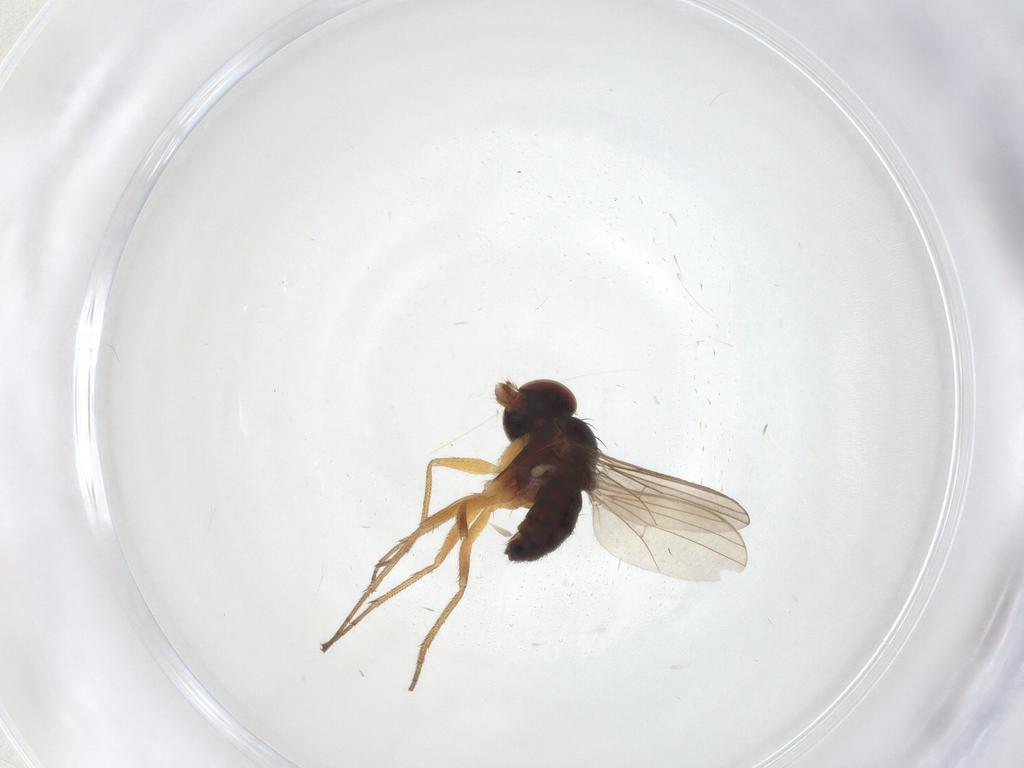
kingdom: Animalia
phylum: Arthropoda
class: Insecta
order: Diptera
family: Dolichopodidae
